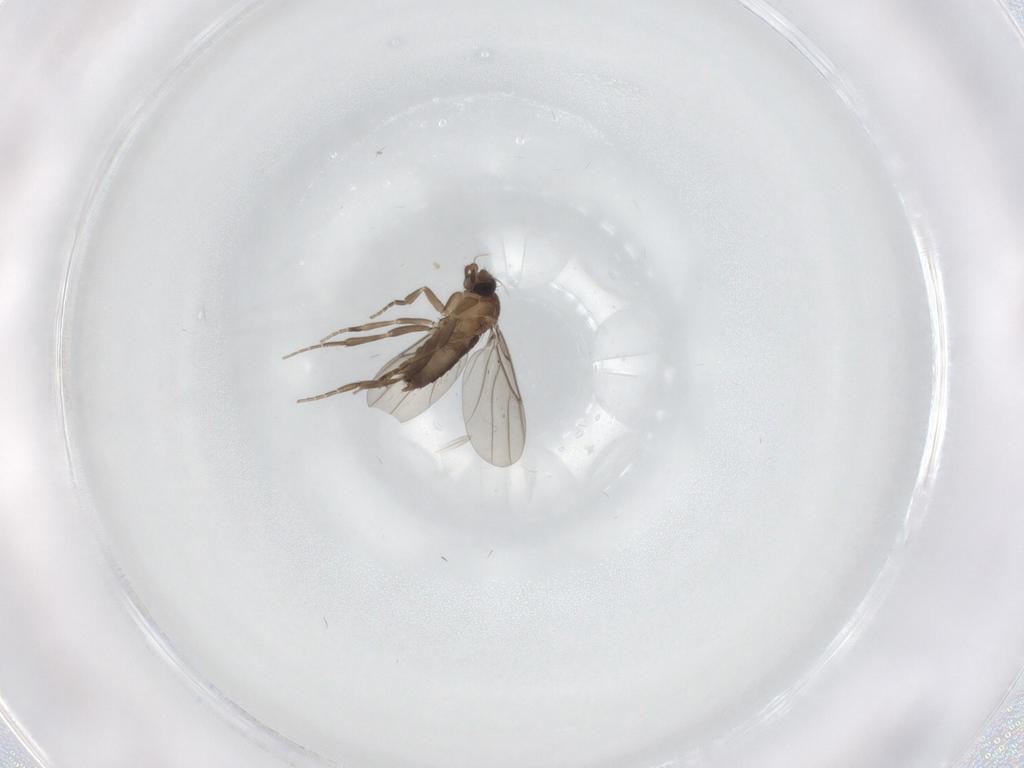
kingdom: Animalia
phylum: Arthropoda
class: Insecta
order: Diptera
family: Phoridae
